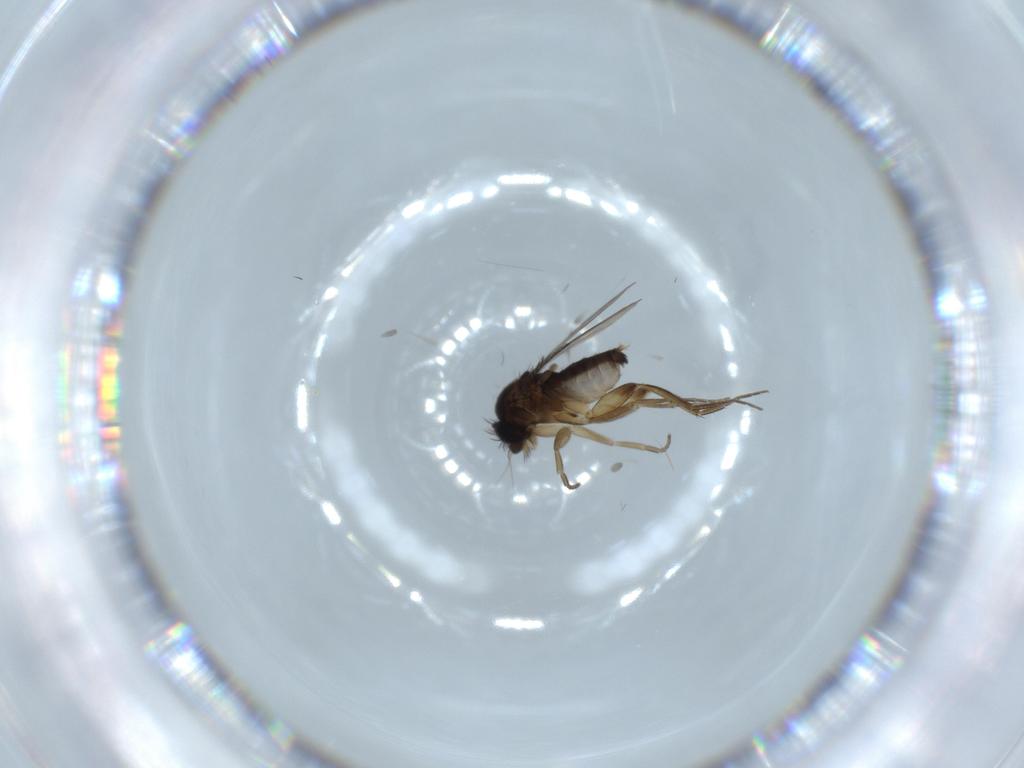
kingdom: Animalia
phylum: Arthropoda
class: Insecta
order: Diptera
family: Phoridae
